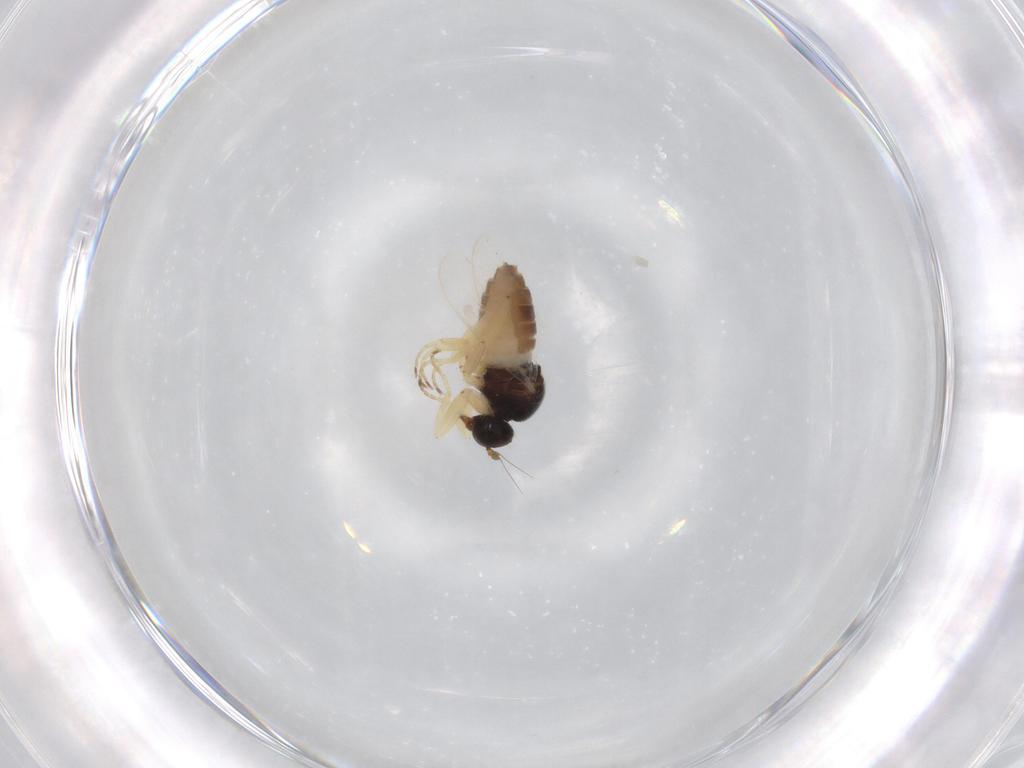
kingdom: Animalia
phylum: Arthropoda
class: Insecta
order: Diptera
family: Hybotidae
